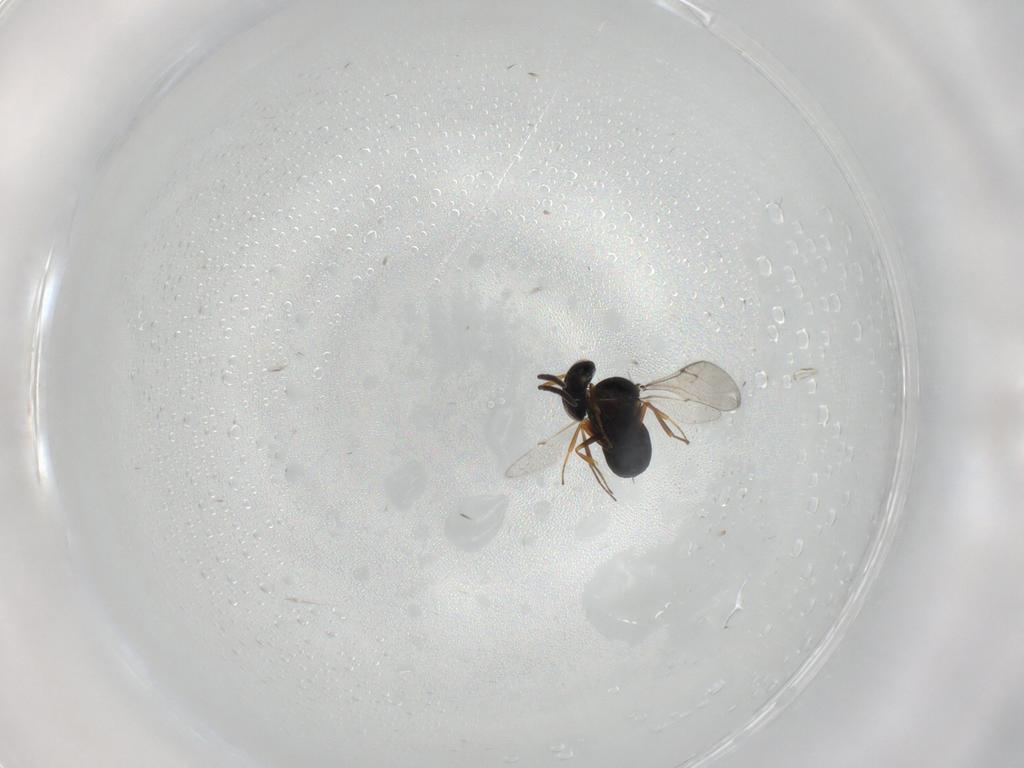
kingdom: Animalia
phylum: Arthropoda
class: Insecta
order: Hymenoptera
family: Scelionidae
